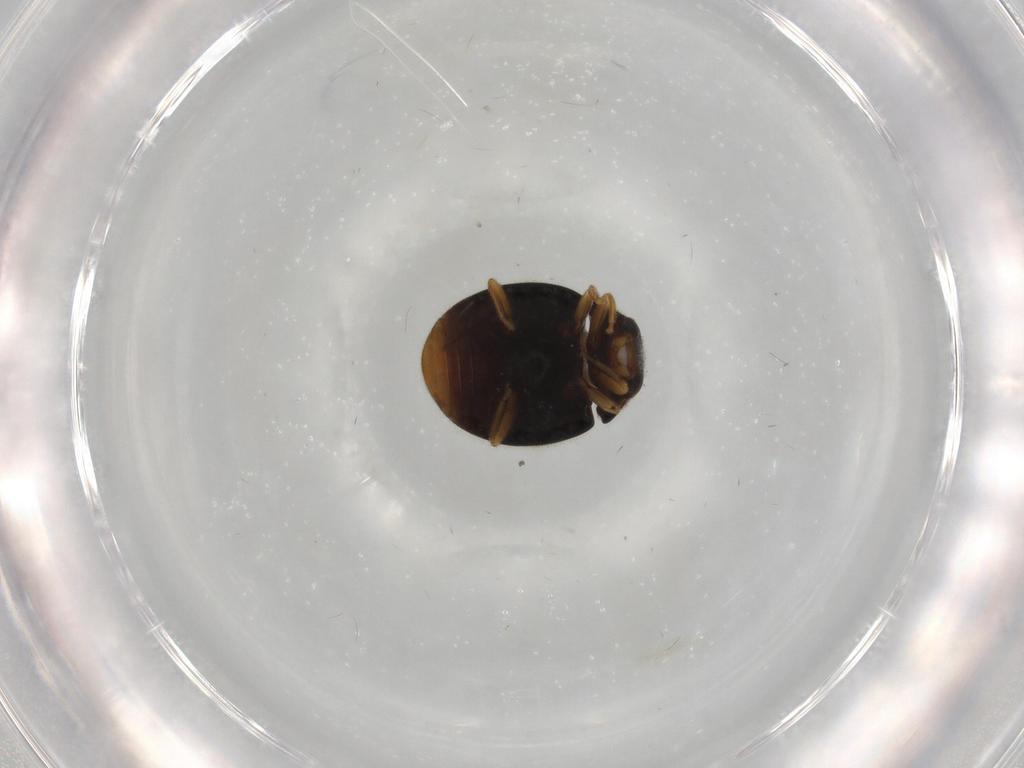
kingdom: Animalia
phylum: Arthropoda
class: Insecta
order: Coleoptera
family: Coccinellidae
